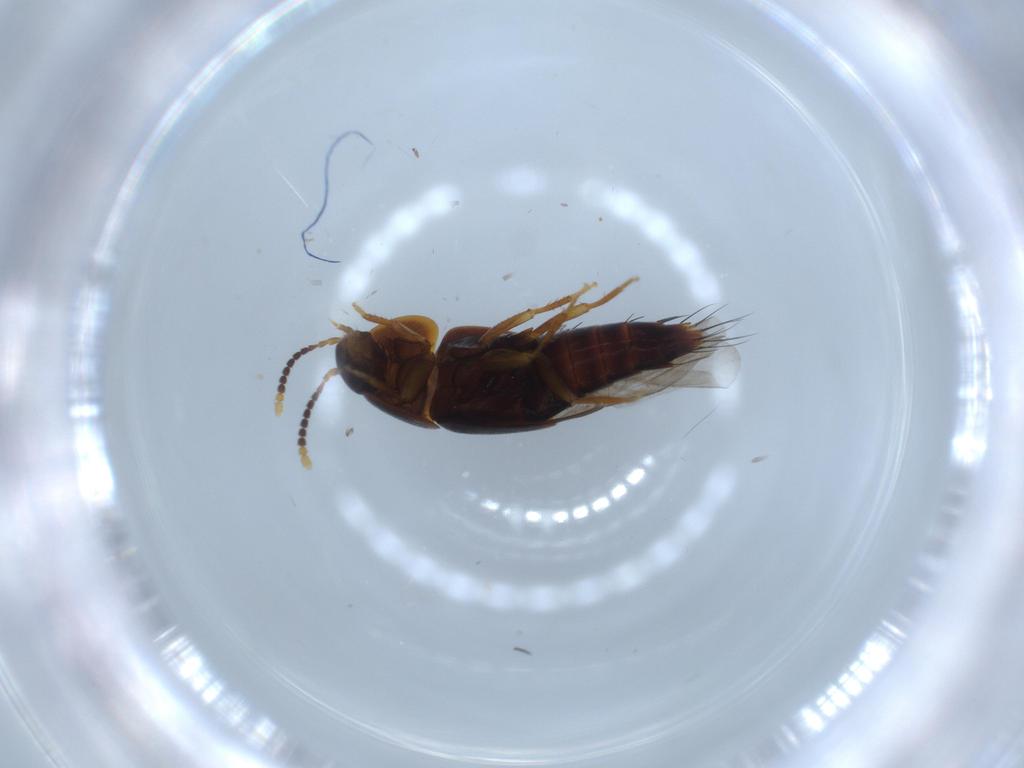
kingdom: Animalia
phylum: Arthropoda
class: Insecta
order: Coleoptera
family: Staphylinidae
